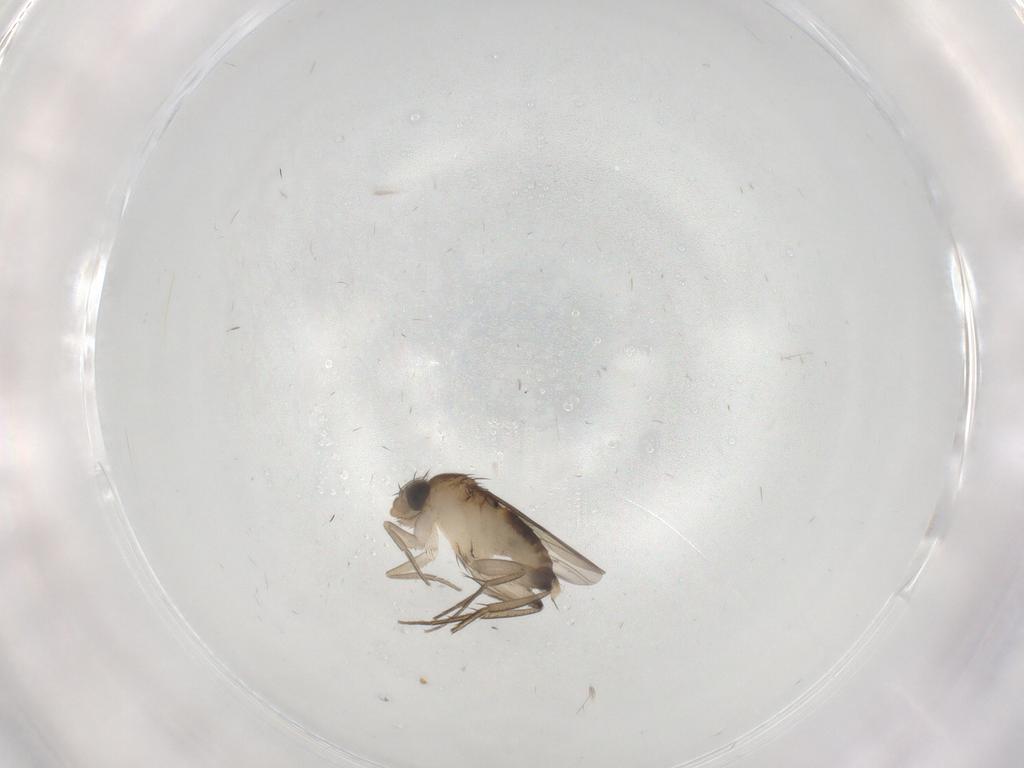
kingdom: Animalia
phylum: Arthropoda
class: Insecta
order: Diptera
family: Phoridae
